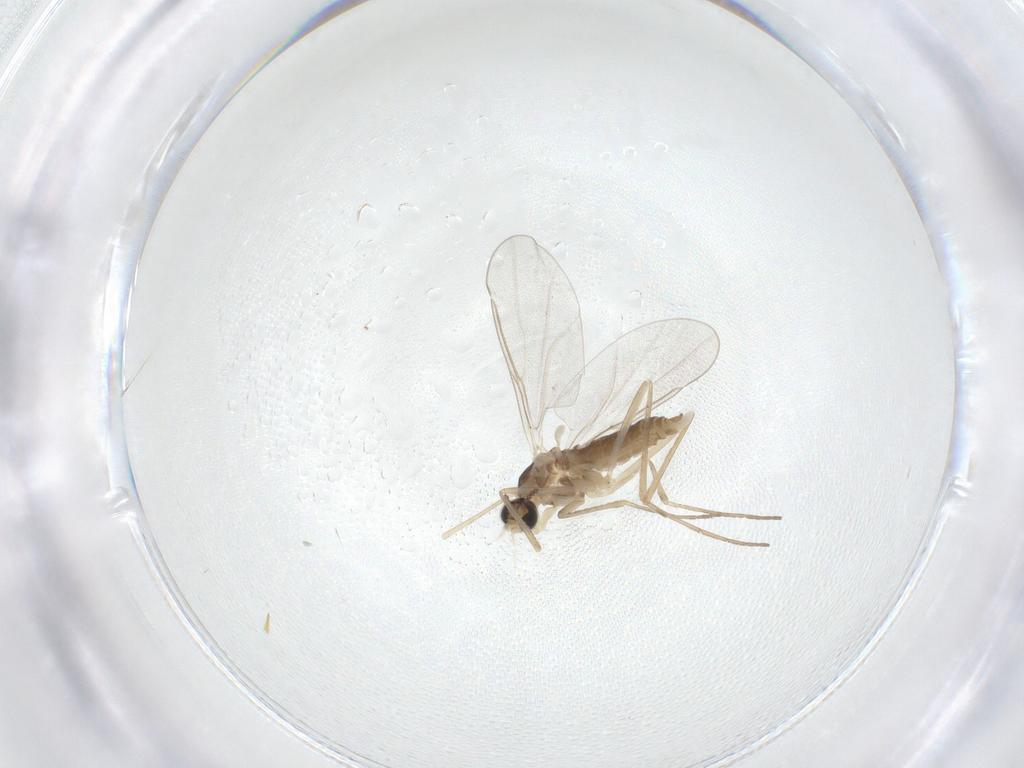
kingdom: Animalia
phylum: Arthropoda
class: Insecta
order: Diptera
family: Cecidomyiidae
